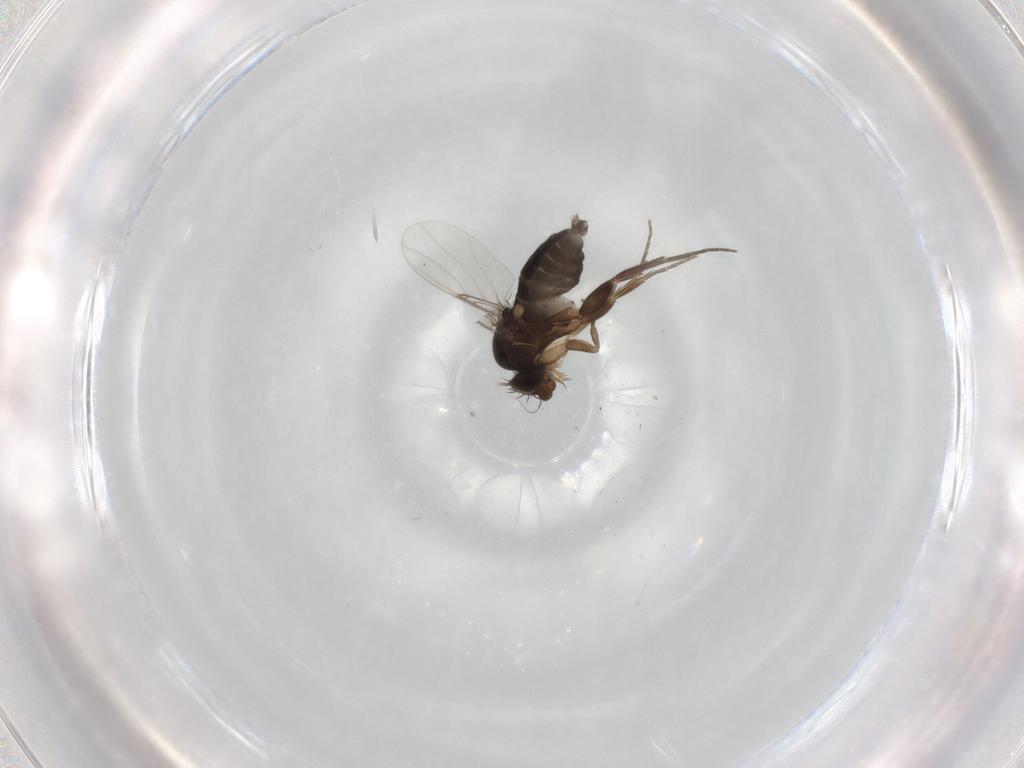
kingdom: Animalia
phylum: Arthropoda
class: Insecta
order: Diptera
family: Phoridae
